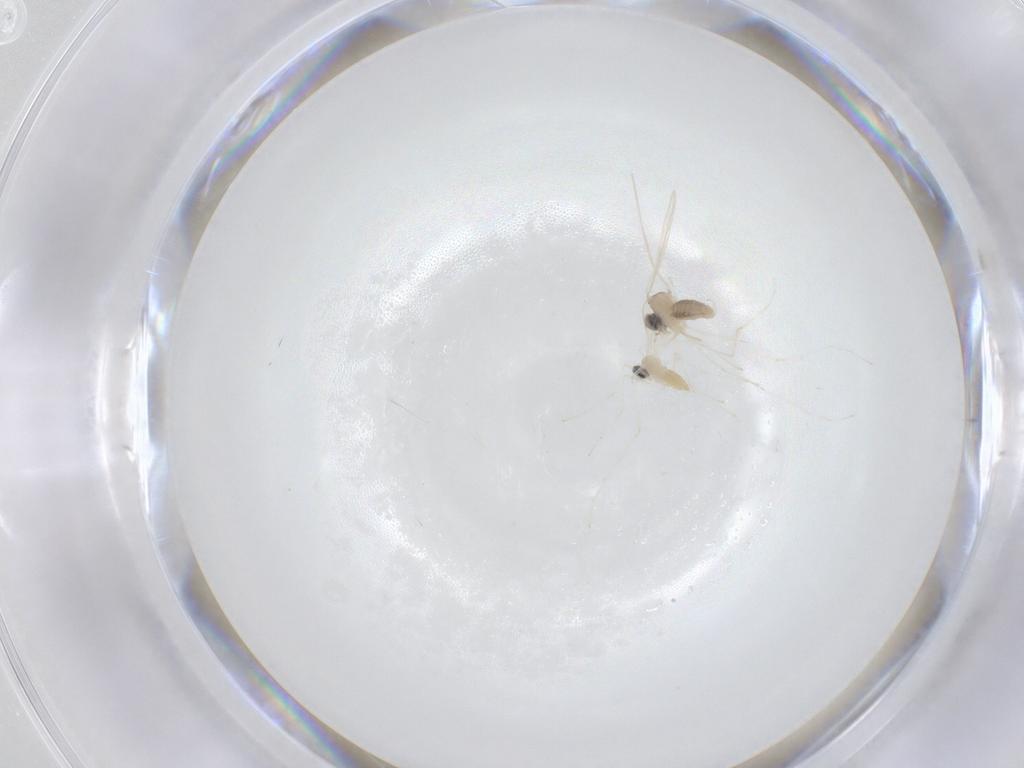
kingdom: Animalia
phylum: Arthropoda
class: Insecta
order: Diptera
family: Cecidomyiidae
